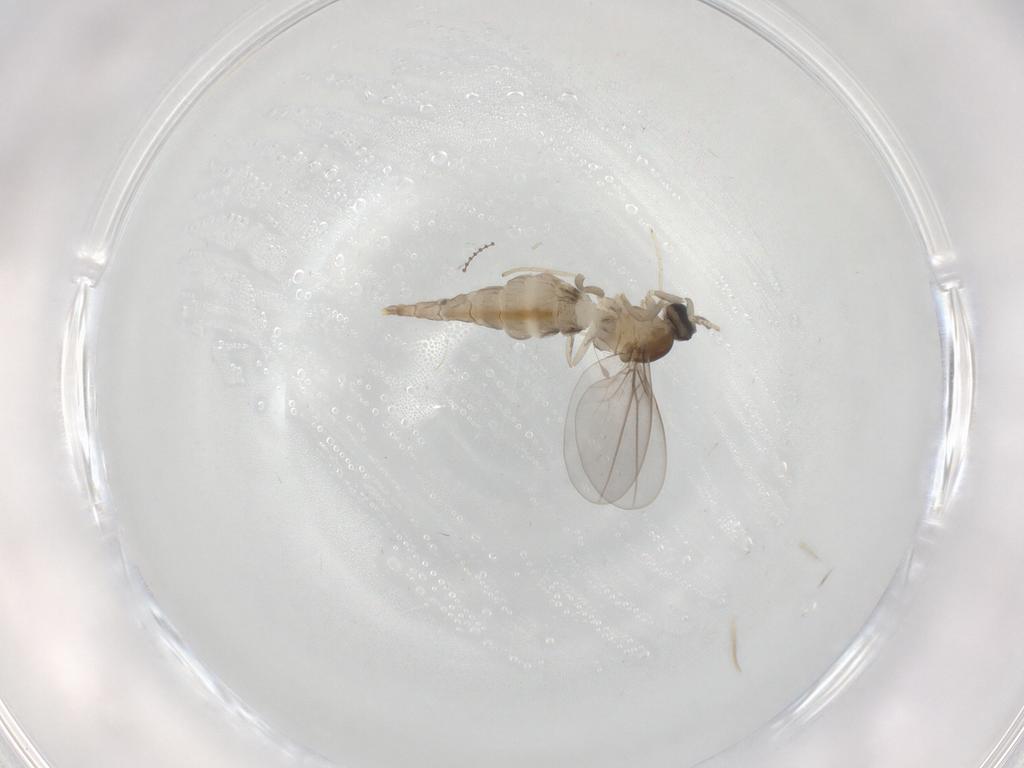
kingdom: Animalia
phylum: Arthropoda
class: Insecta
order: Diptera
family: Cecidomyiidae
